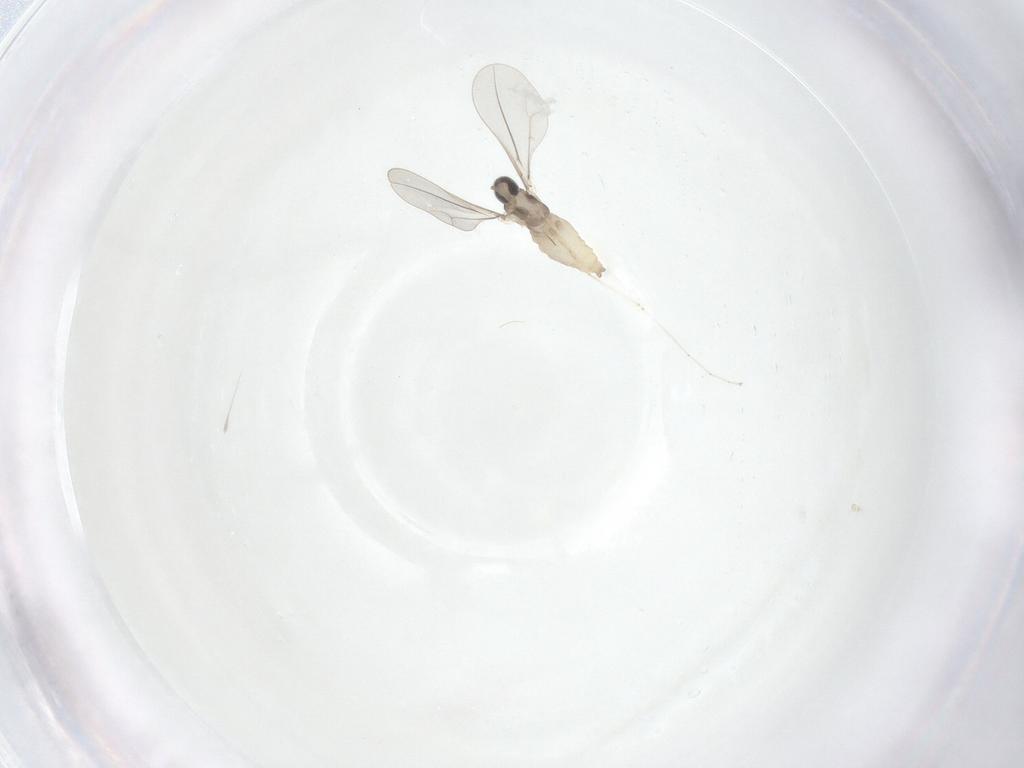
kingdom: Animalia
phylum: Arthropoda
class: Insecta
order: Diptera
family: Cecidomyiidae
